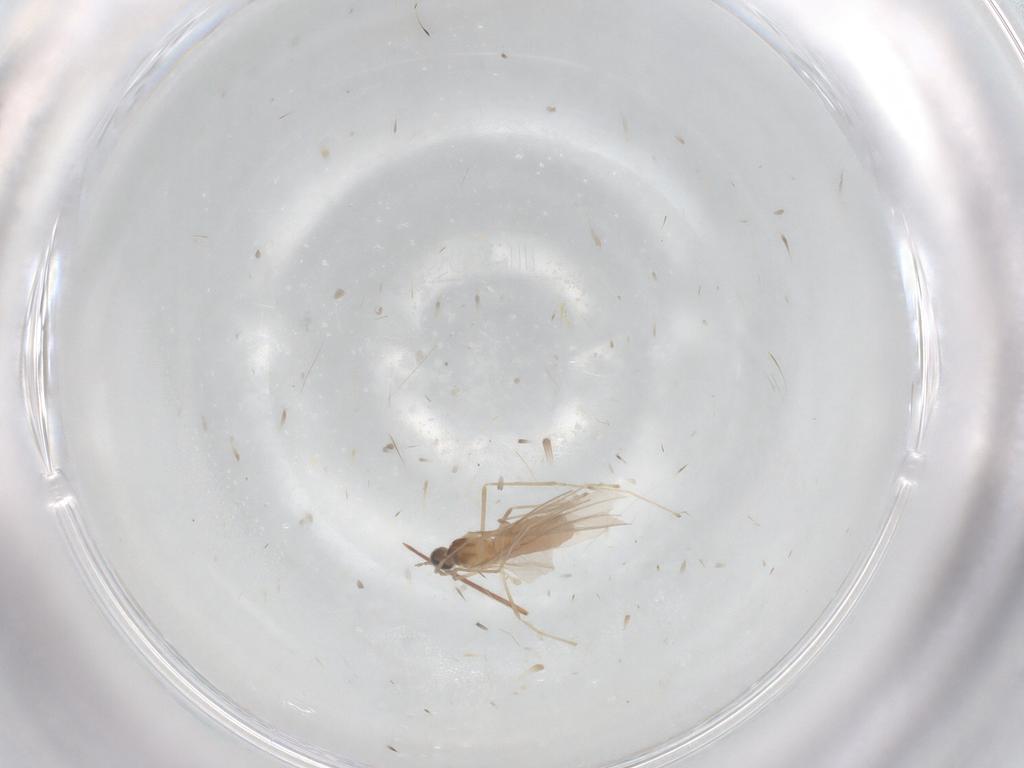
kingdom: Animalia
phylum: Arthropoda
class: Insecta
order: Diptera
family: Cecidomyiidae
